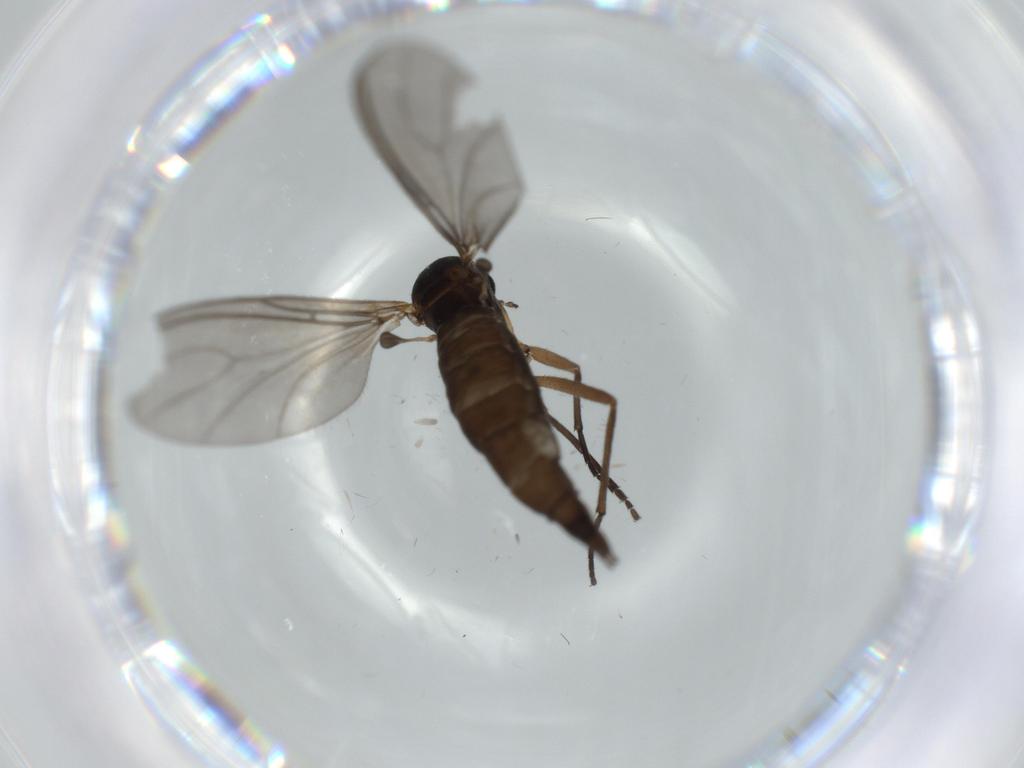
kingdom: Animalia
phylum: Arthropoda
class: Insecta
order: Diptera
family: Sciaridae
